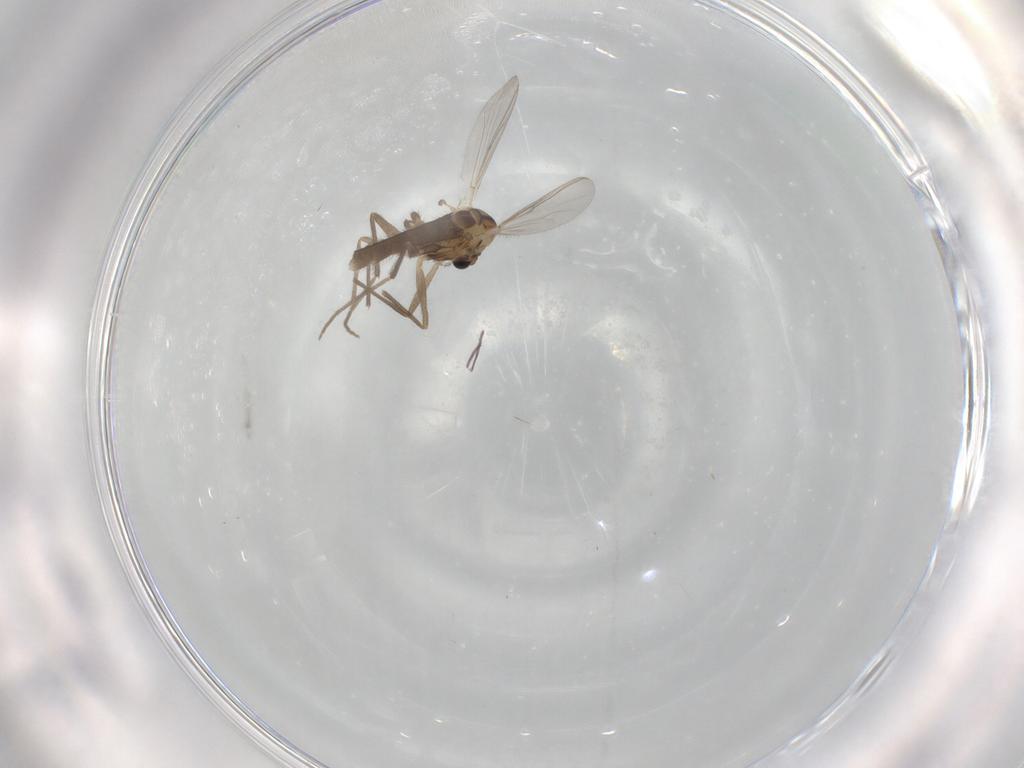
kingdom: Animalia
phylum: Arthropoda
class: Insecta
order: Diptera
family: Chironomidae
